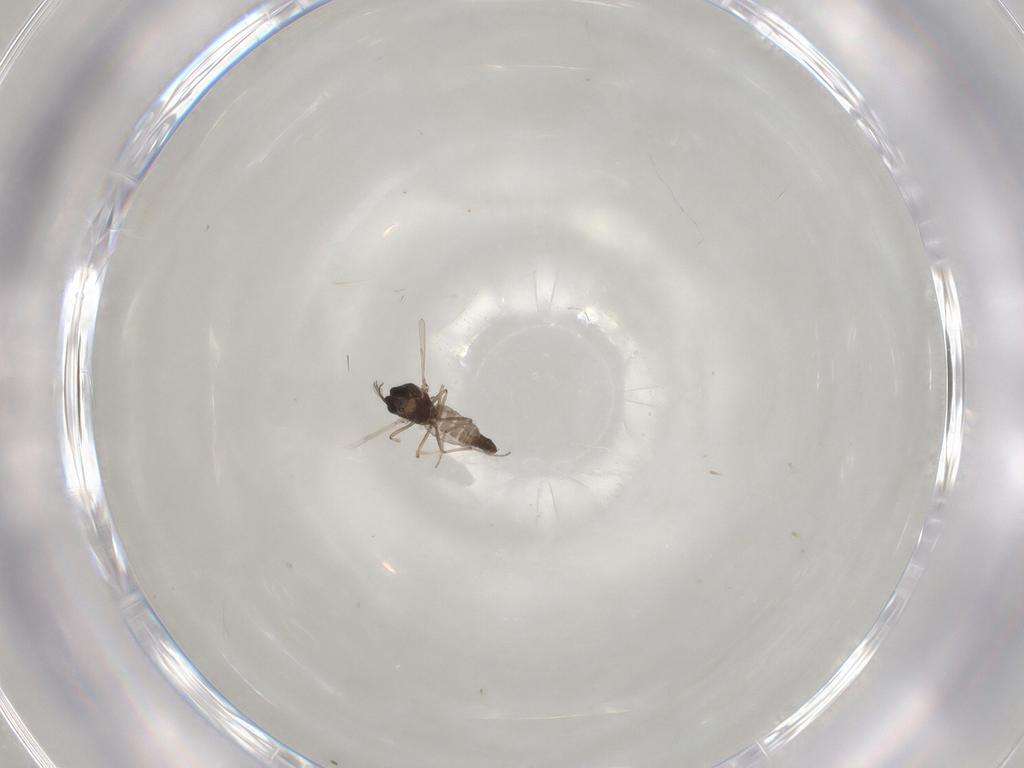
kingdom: Animalia
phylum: Arthropoda
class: Insecta
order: Diptera
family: Ceratopogonidae
